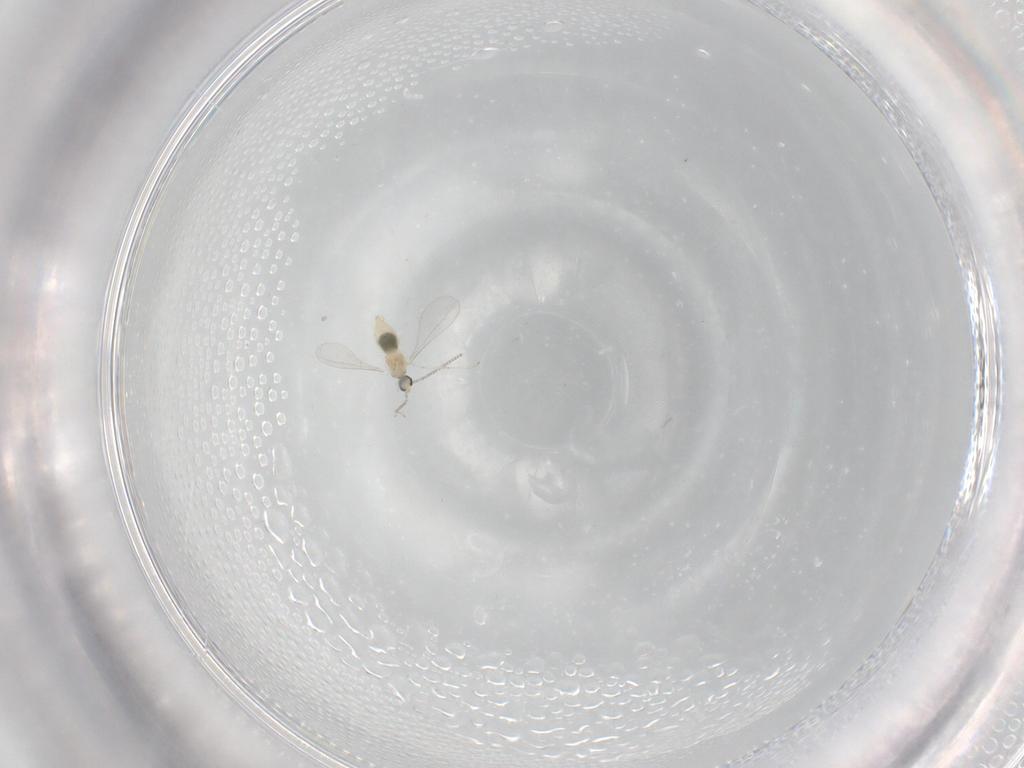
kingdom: Animalia
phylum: Arthropoda
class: Insecta
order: Diptera
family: Cecidomyiidae
